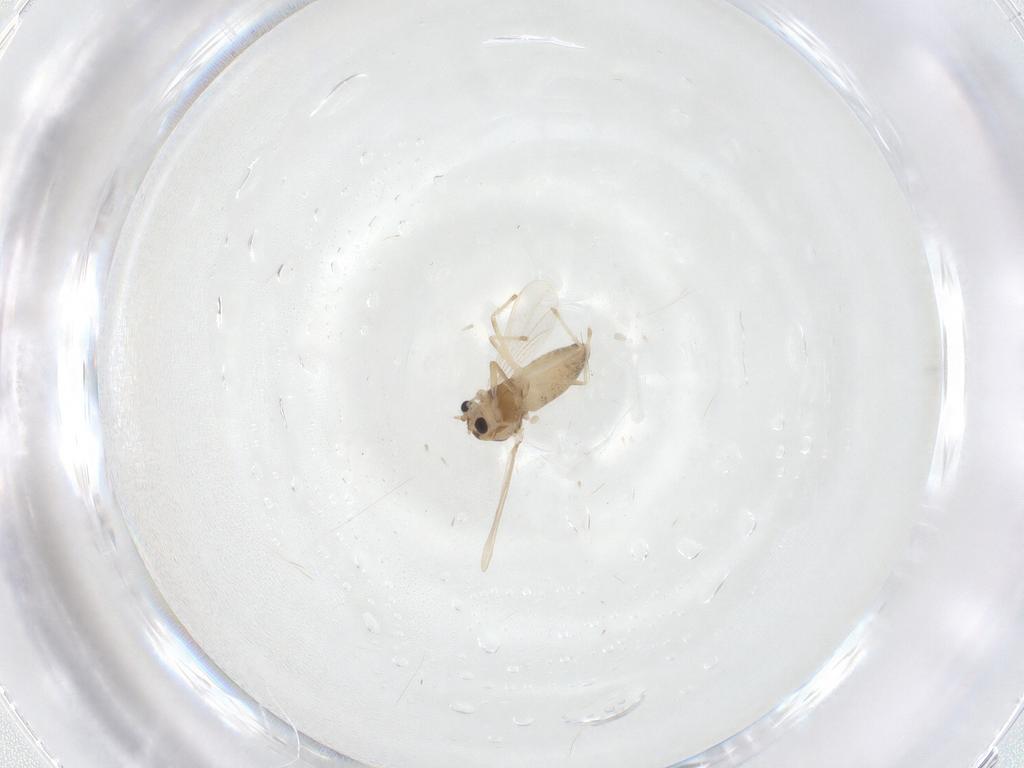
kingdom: Animalia
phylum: Arthropoda
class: Insecta
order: Diptera
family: Chironomidae
